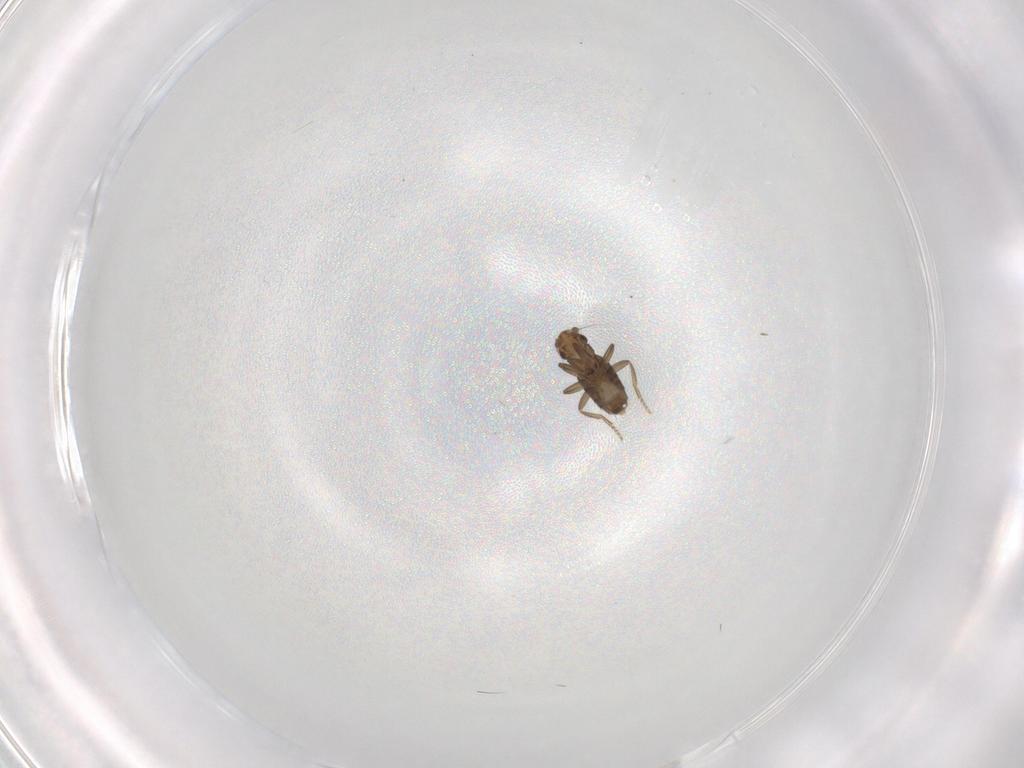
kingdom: Animalia
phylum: Arthropoda
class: Insecta
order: Diptera
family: Phoridae
